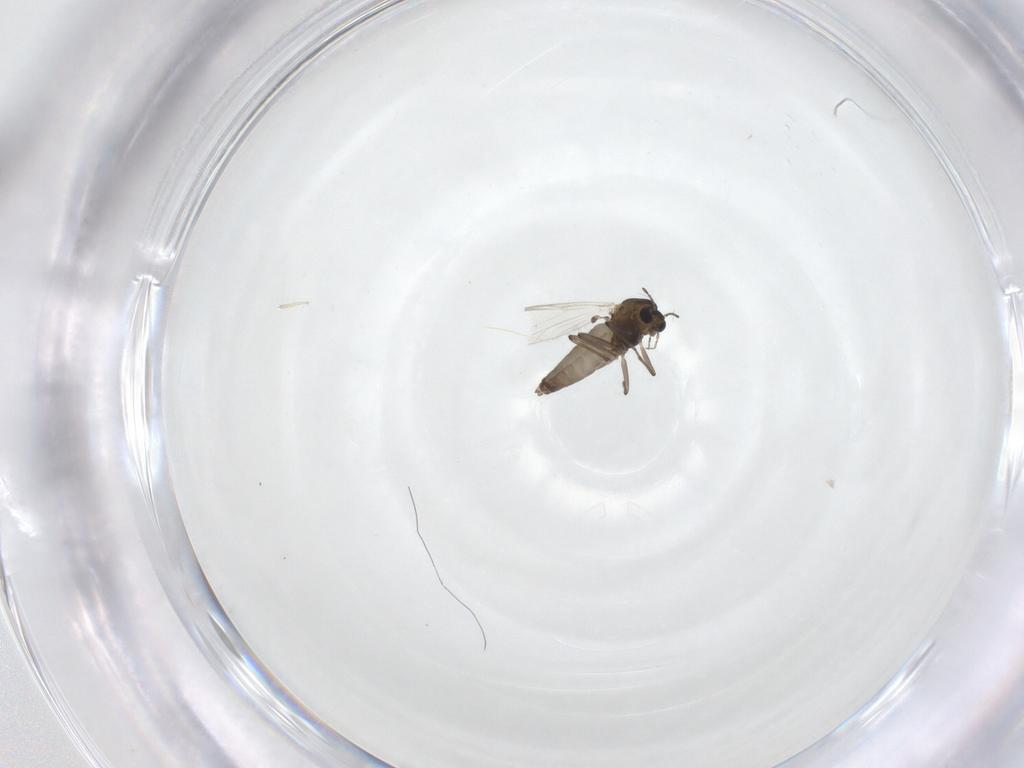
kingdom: Animalia
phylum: Arthropoda
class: Insecta
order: Diptera
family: Chironomidae
